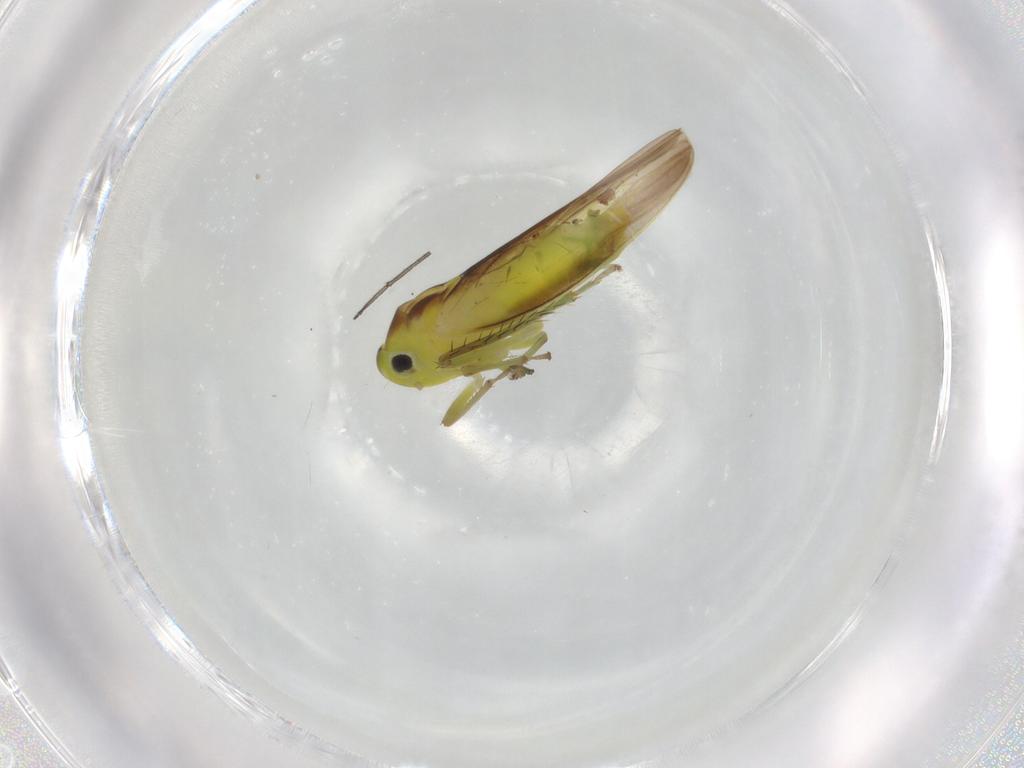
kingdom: Animalia
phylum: Arthropoda
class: Insecta
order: Hemiptera
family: Cicadellidae
